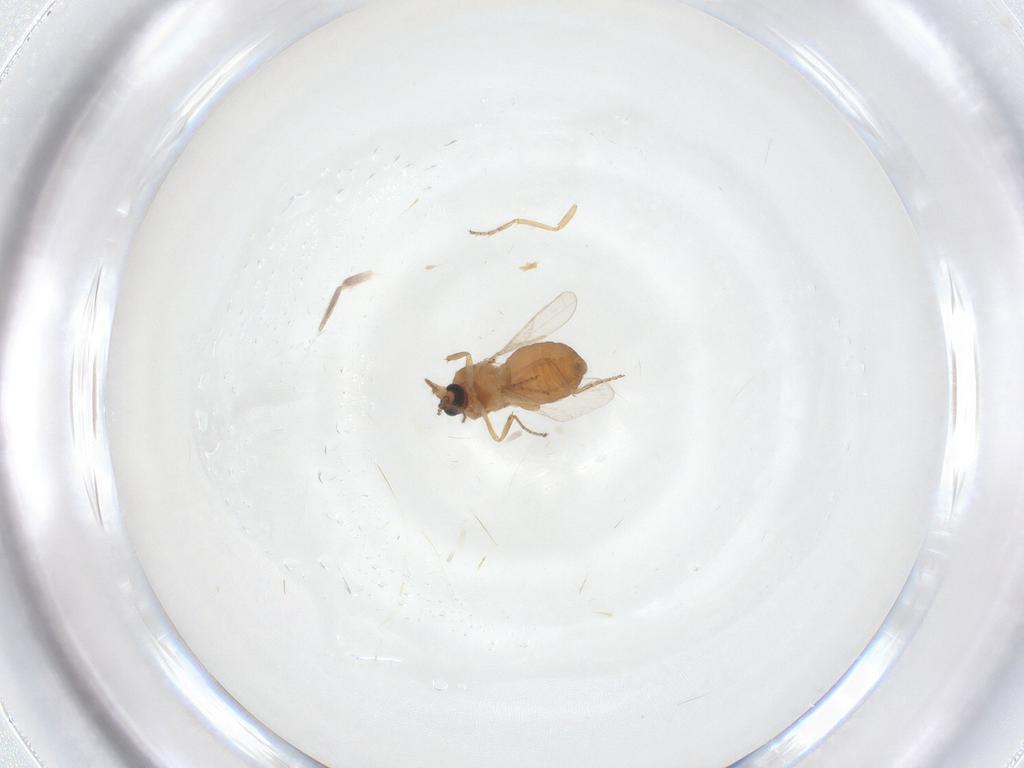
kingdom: Animalia
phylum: Arthropoda
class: Insecta
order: Diptera
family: Ceratopogonidae
